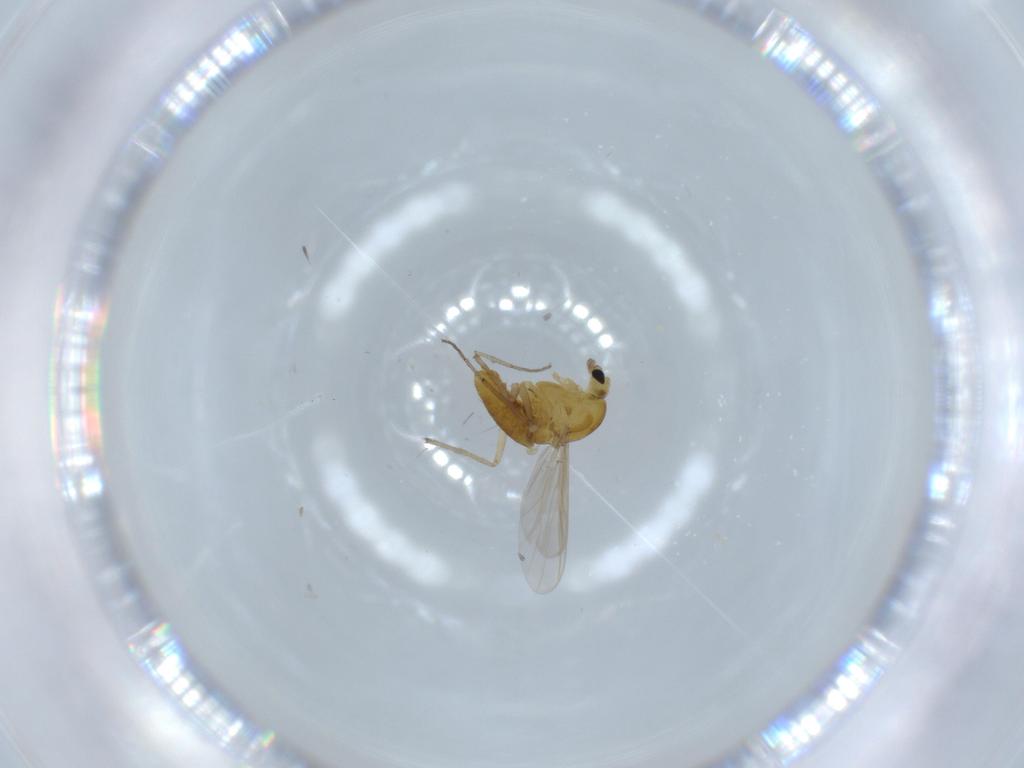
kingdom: Animalia
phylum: Arthropoda
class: Insecta
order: Diptera
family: Chironomidae
